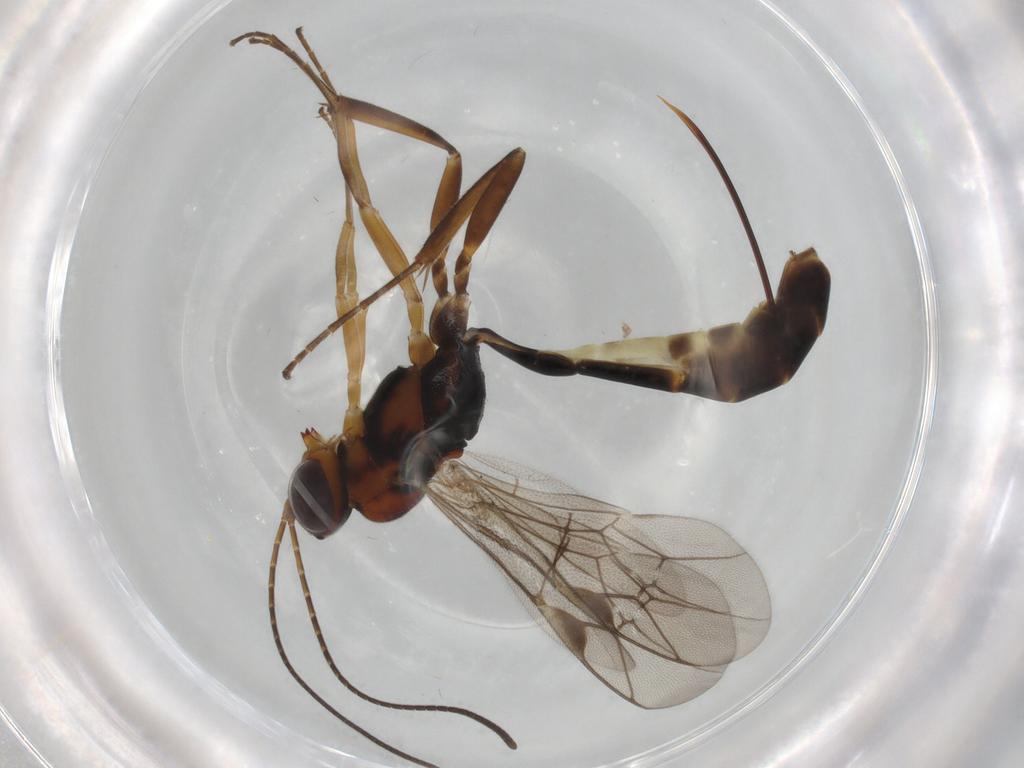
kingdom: Animalia
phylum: Arthropoda
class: Insecta
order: Hymenoptera
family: Ichneumonidae
